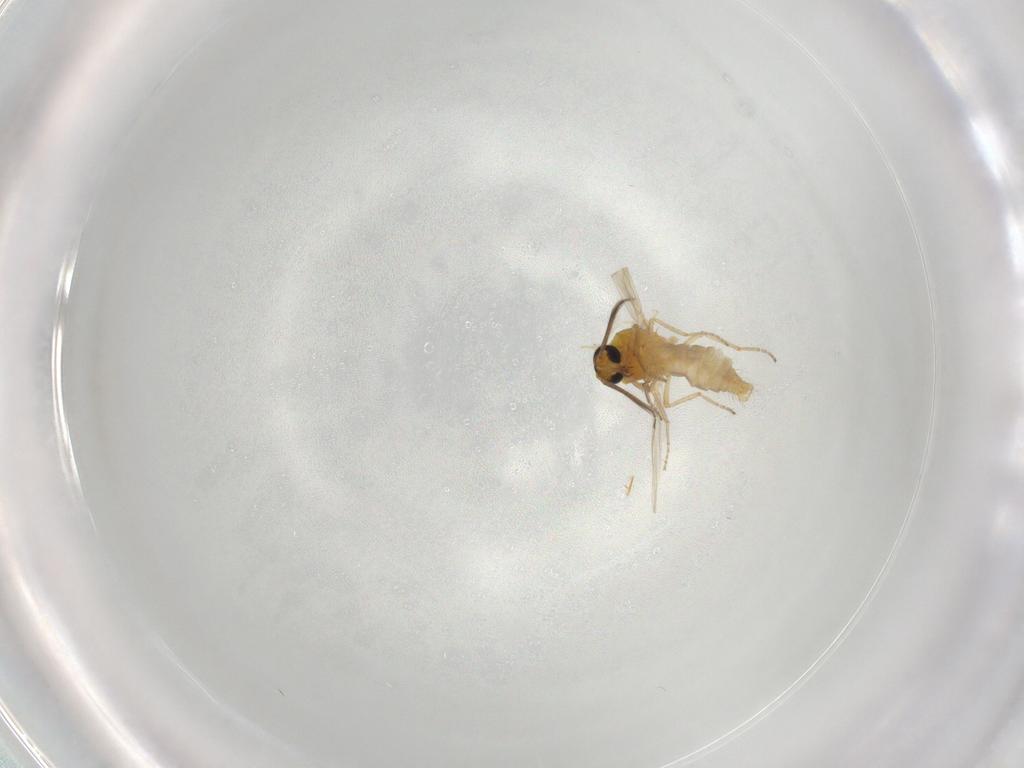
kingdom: Animalia
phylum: Arthropoda
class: Insecta
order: Diptera
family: Ceratopogonidae
